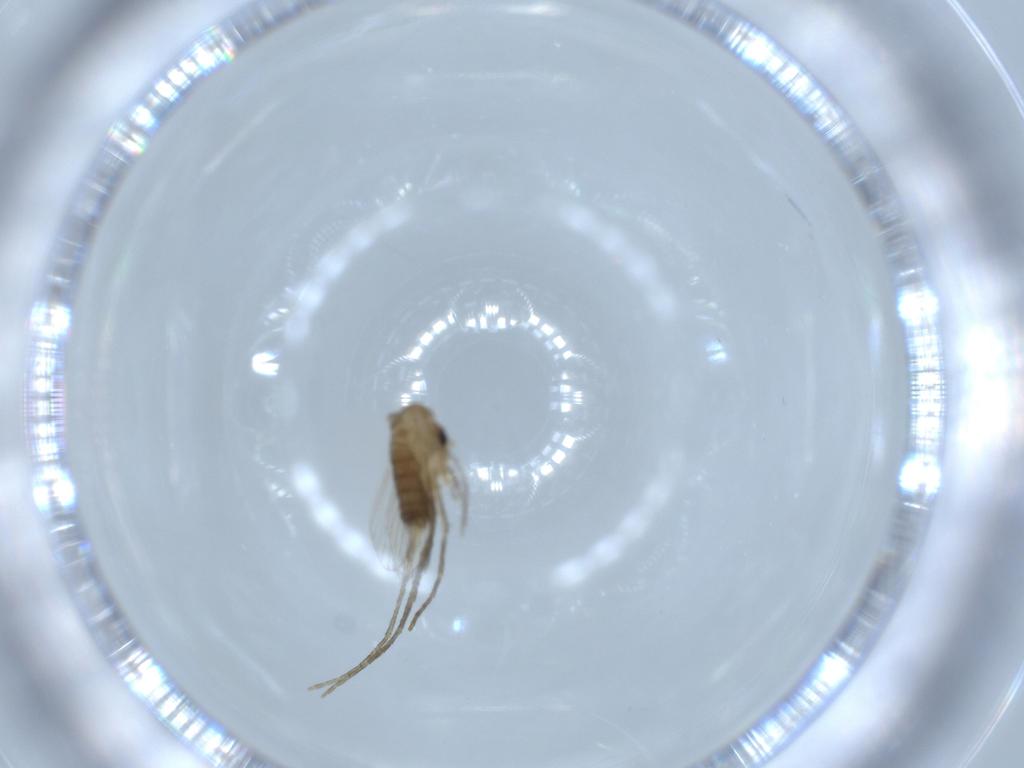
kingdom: Animalia
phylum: Arthropoda
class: Insecta
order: Diptera
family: Psychodidae
